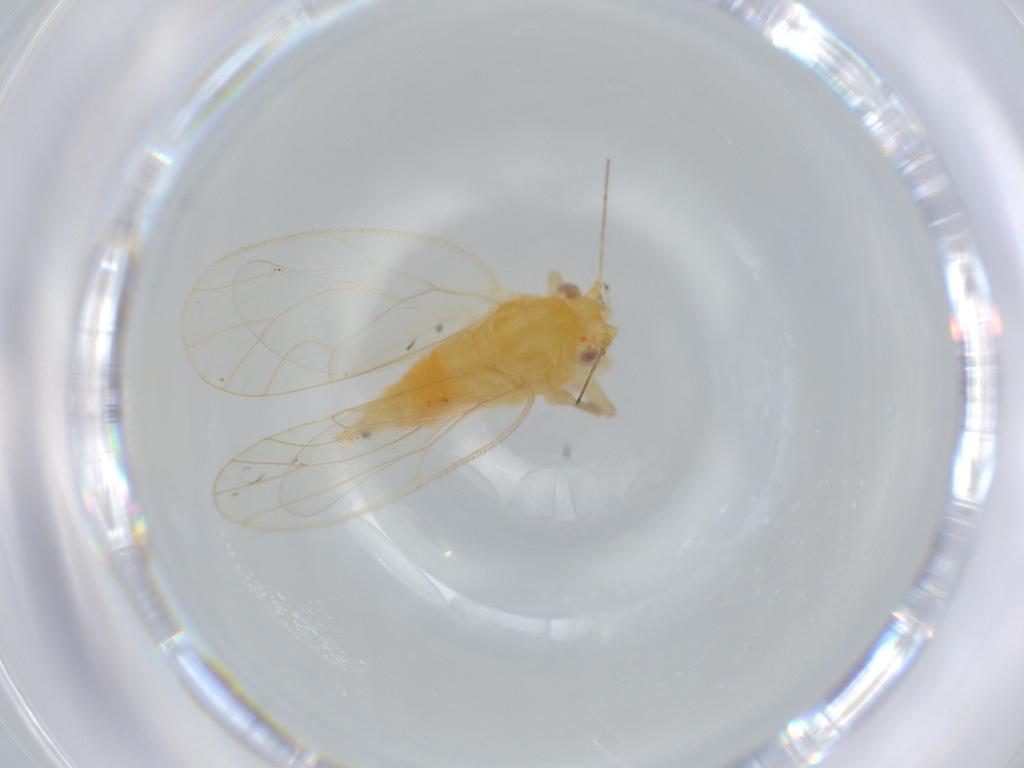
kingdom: Animalia
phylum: Arthropoda
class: Insecta
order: Hemiptera
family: Psyllidae
